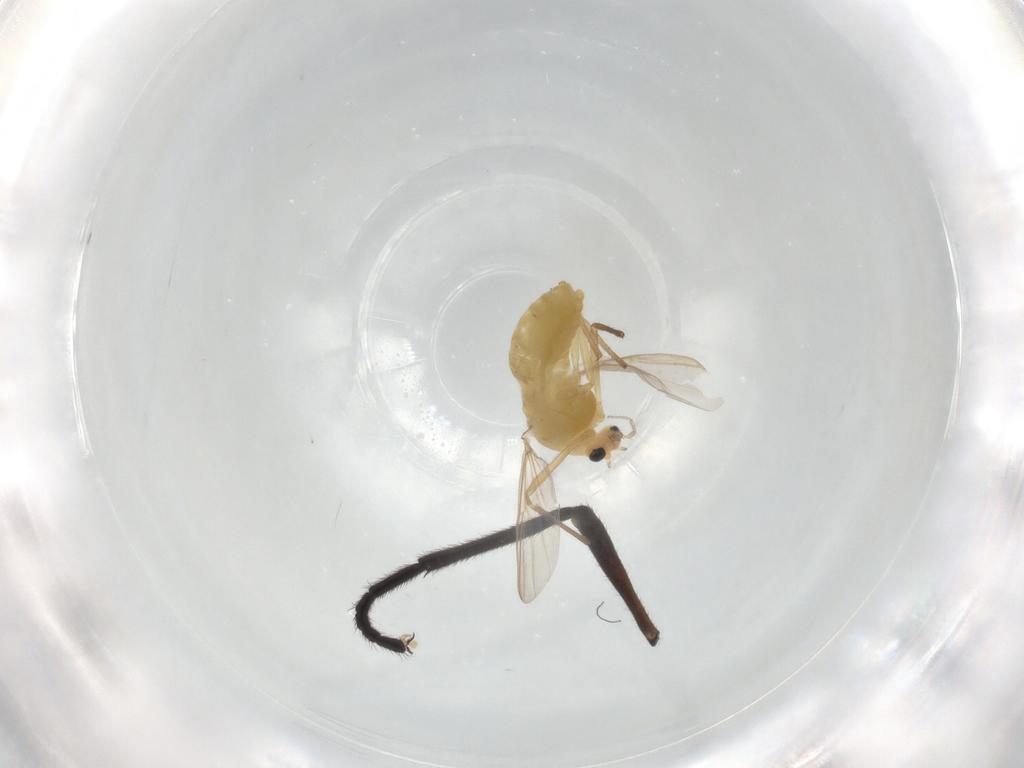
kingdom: Animalia
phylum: Arthropoda
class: Insecta
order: Diptera
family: Chironomidae
